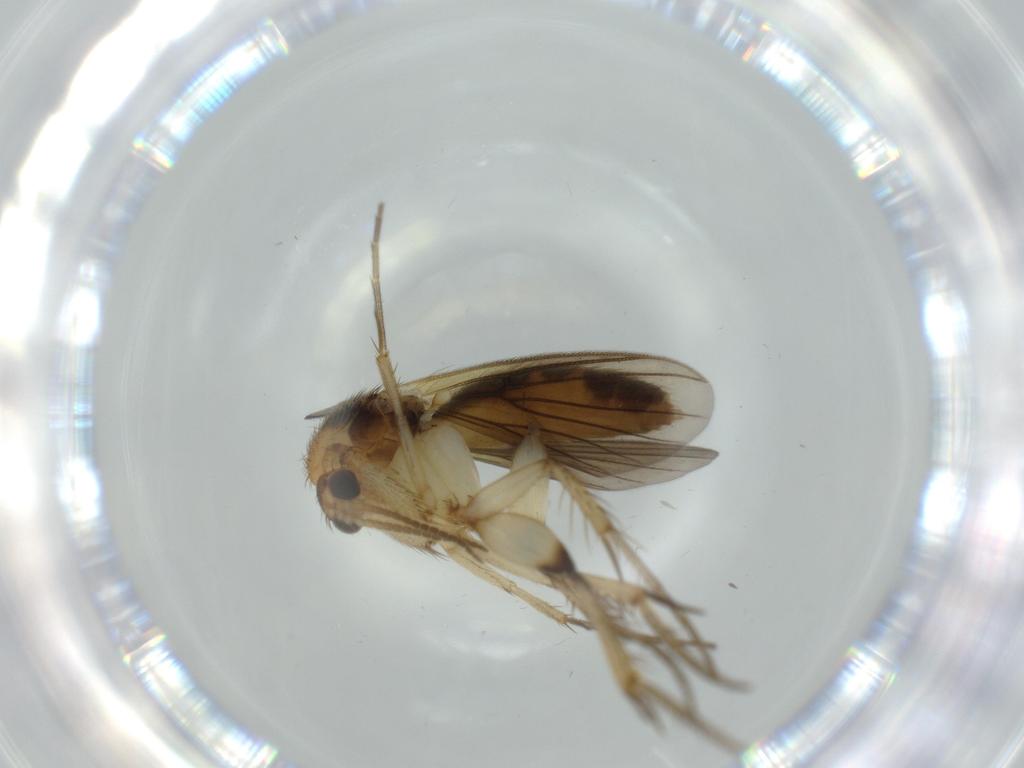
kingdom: Animalia
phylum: Arthropoda
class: Insecta
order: Diptera
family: Mycetophilidae
